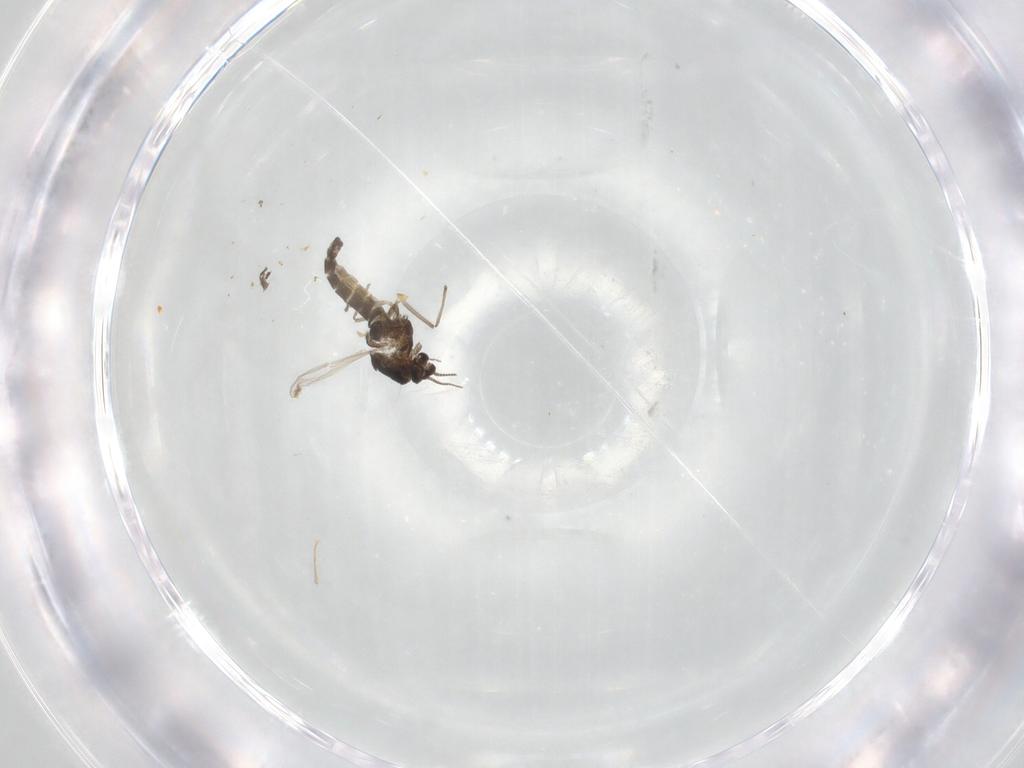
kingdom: Animalia
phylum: Arthropoda
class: Insecta
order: Diptera
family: Chironomidae
